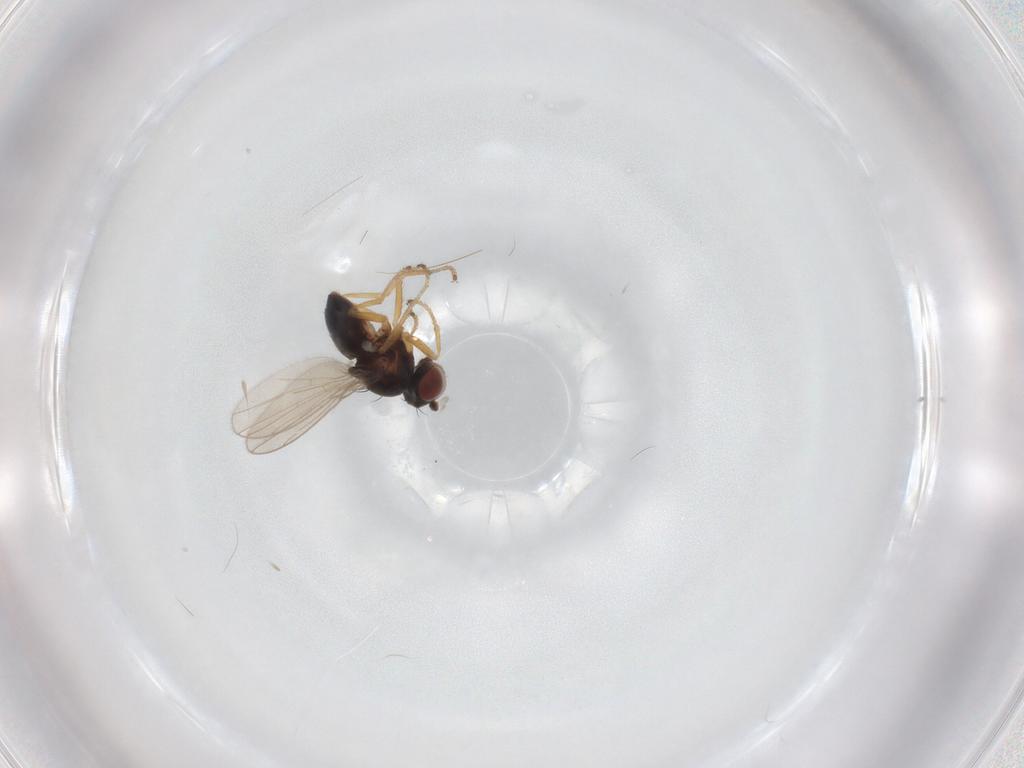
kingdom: Animalia
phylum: Arthropoda
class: Insecta
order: Diptera
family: Ephydridae
